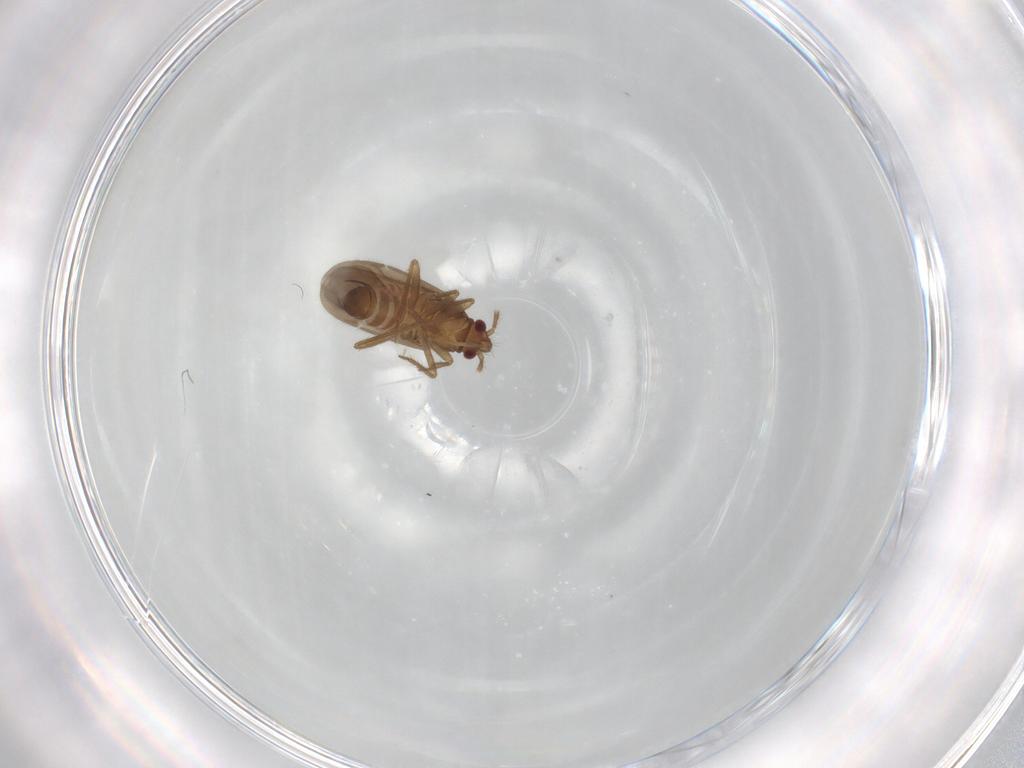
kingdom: Animalia
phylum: Arthropoda
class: Insecta
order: Hemiptera
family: Ceratocombidae
